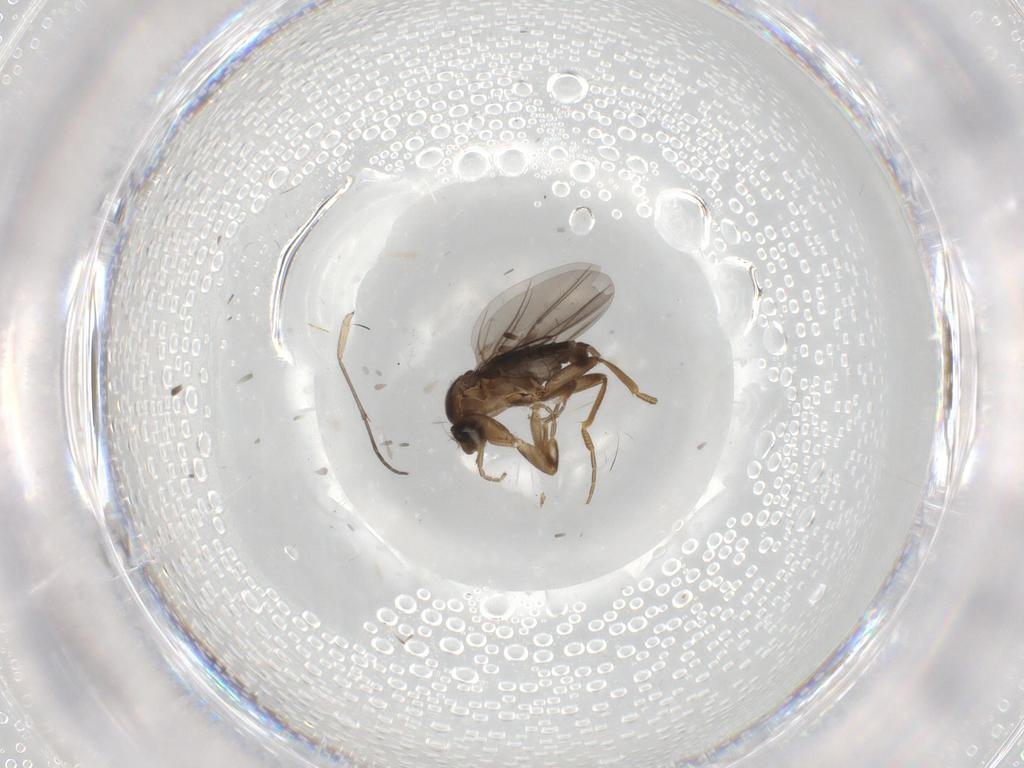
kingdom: Animalia
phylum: Arthropoda
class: Insecta
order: Diptera
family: Phoridae
